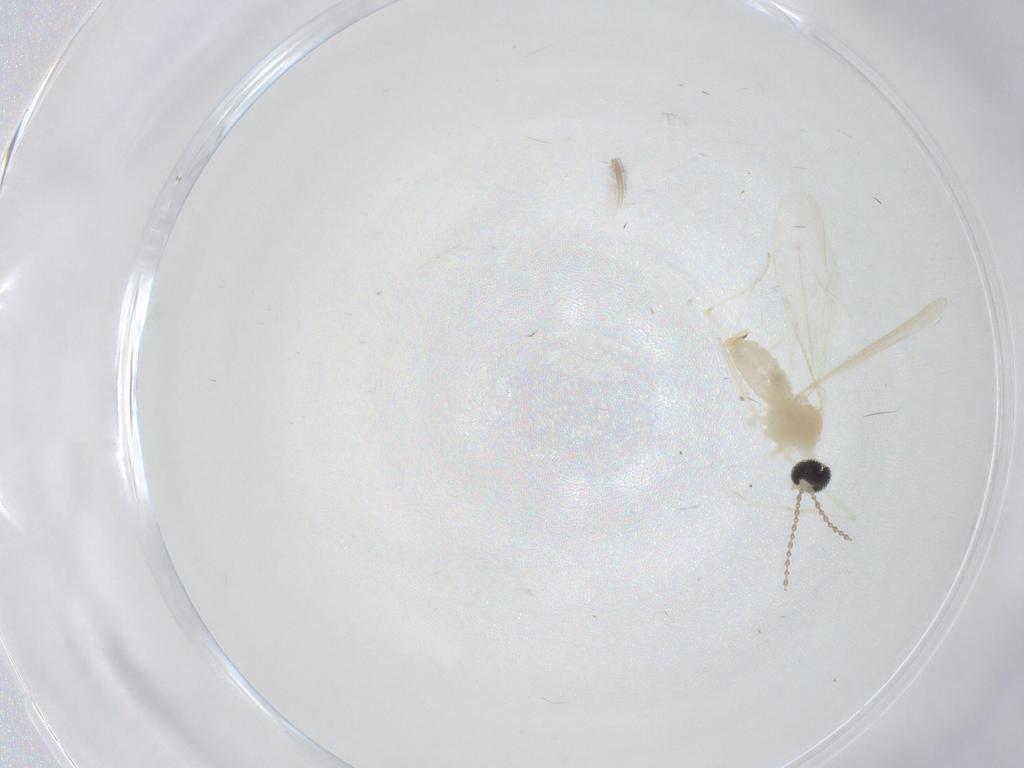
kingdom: Animalia
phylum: Arthropoda
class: Insecta
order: Diptera
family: Cecidomyiidae
